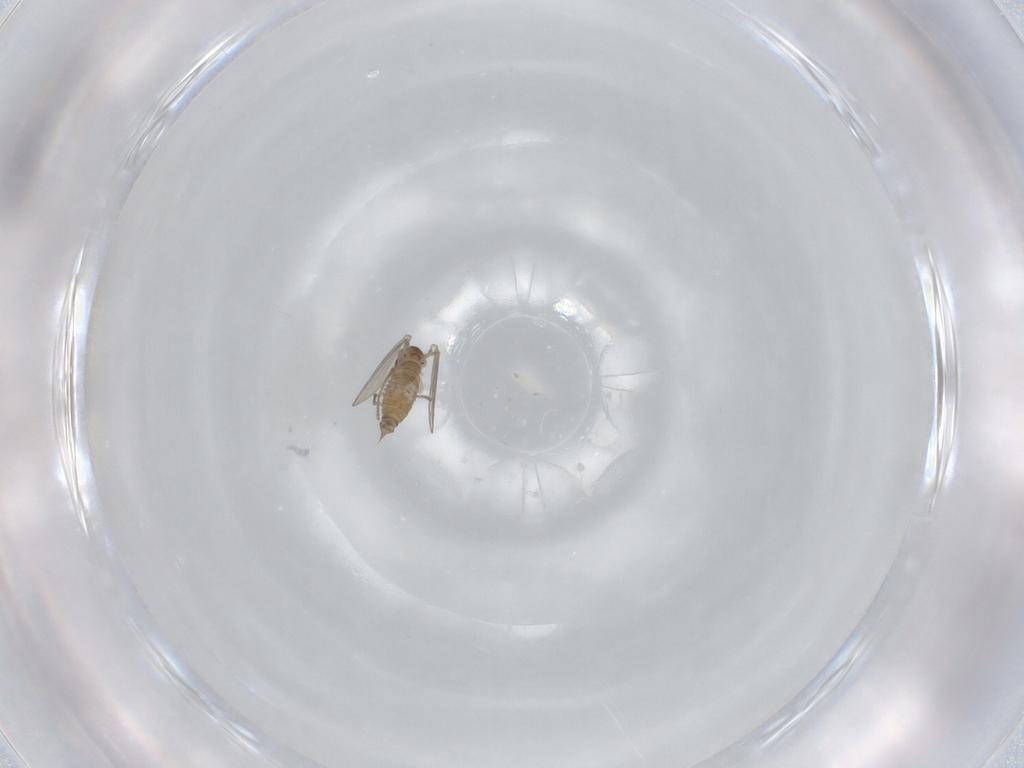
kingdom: Animalia
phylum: Arthropoda
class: Insecta
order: Diptera
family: Psychodidae
